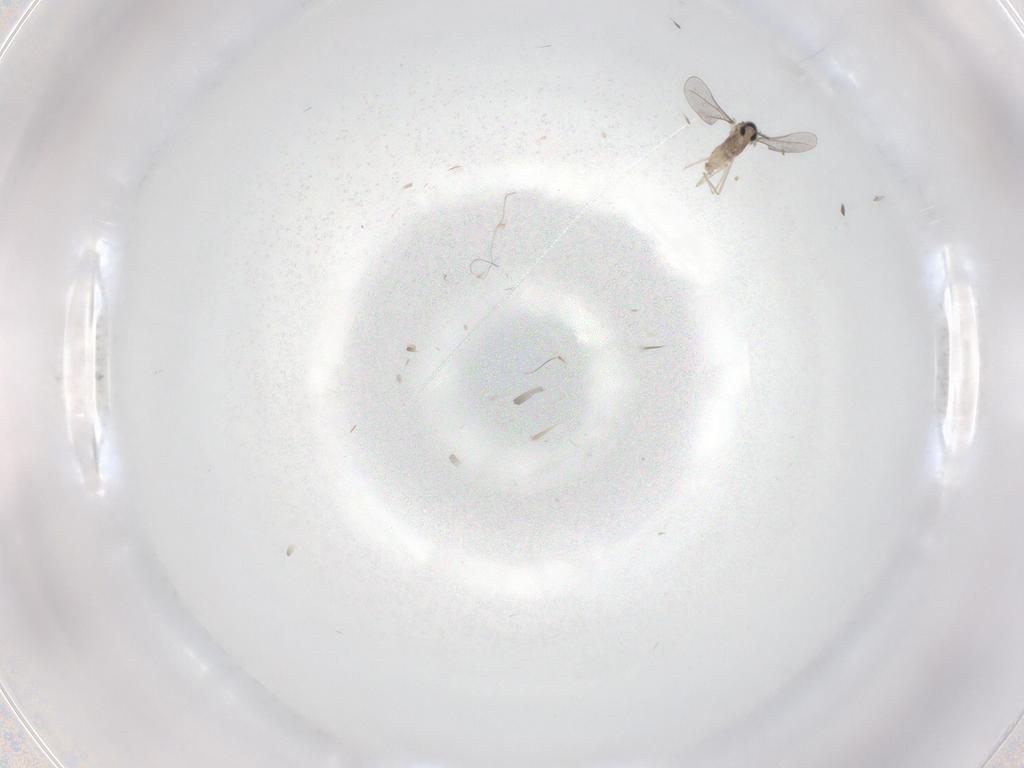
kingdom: Animalia
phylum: Arthropoda
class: Insecta
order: Diptera
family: Cecidomyiidae
